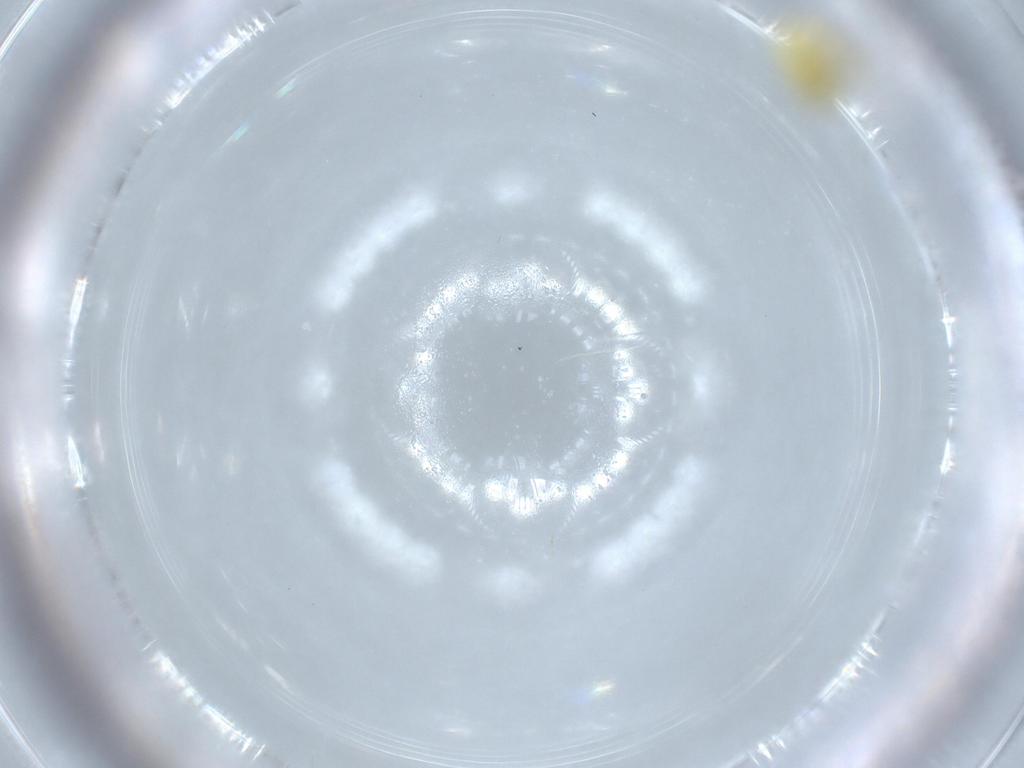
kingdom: Animalia
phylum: Arthropoda
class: Insecta
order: Hemiptera
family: Aleyrodidae
